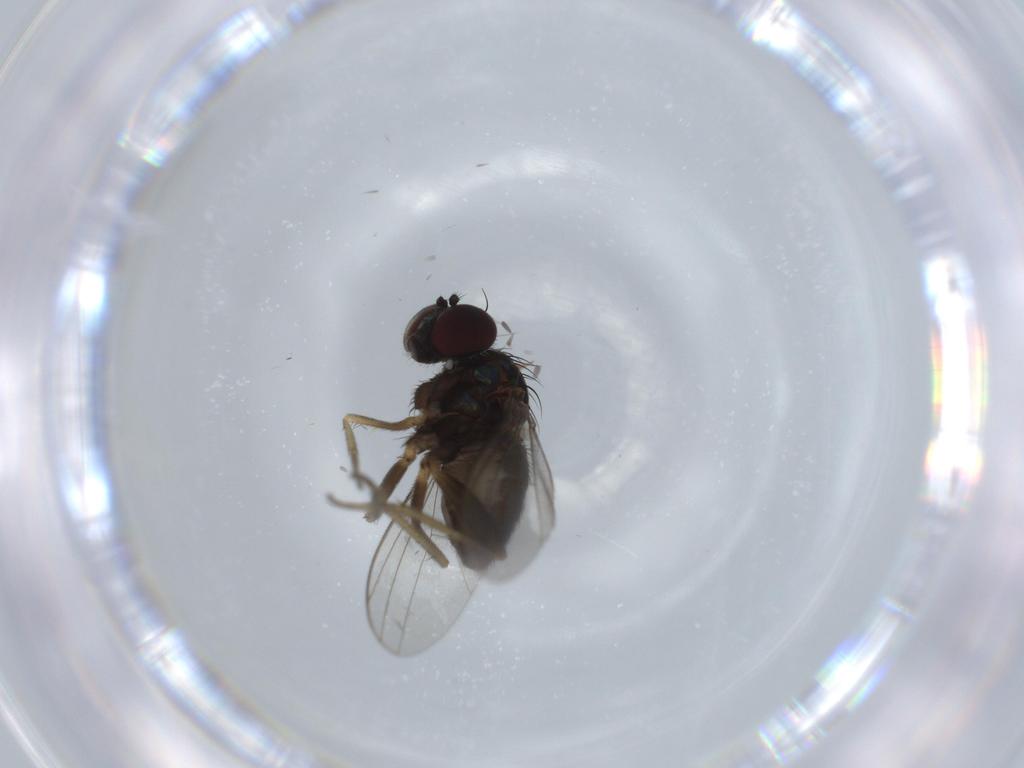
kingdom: Animalia
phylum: Arthropoda
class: Insecta
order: Diptera
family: Dolichopodidae
